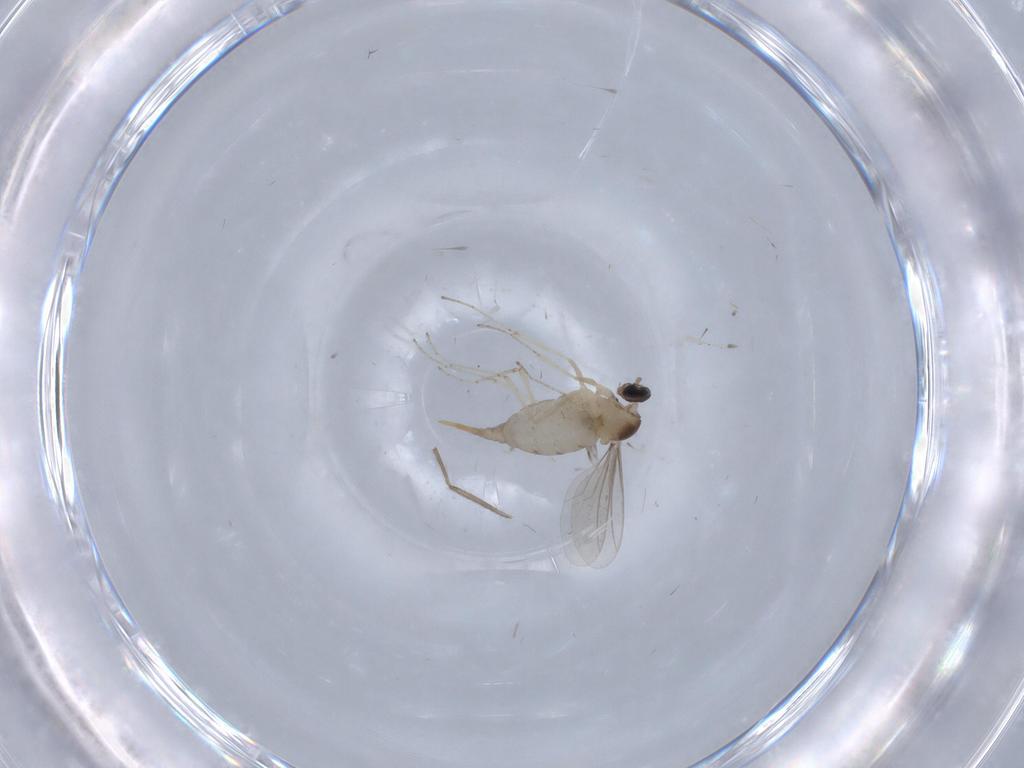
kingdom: Animalia
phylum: Arthropoda
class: Insecta
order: Diptera
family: Cecidomyiidae
